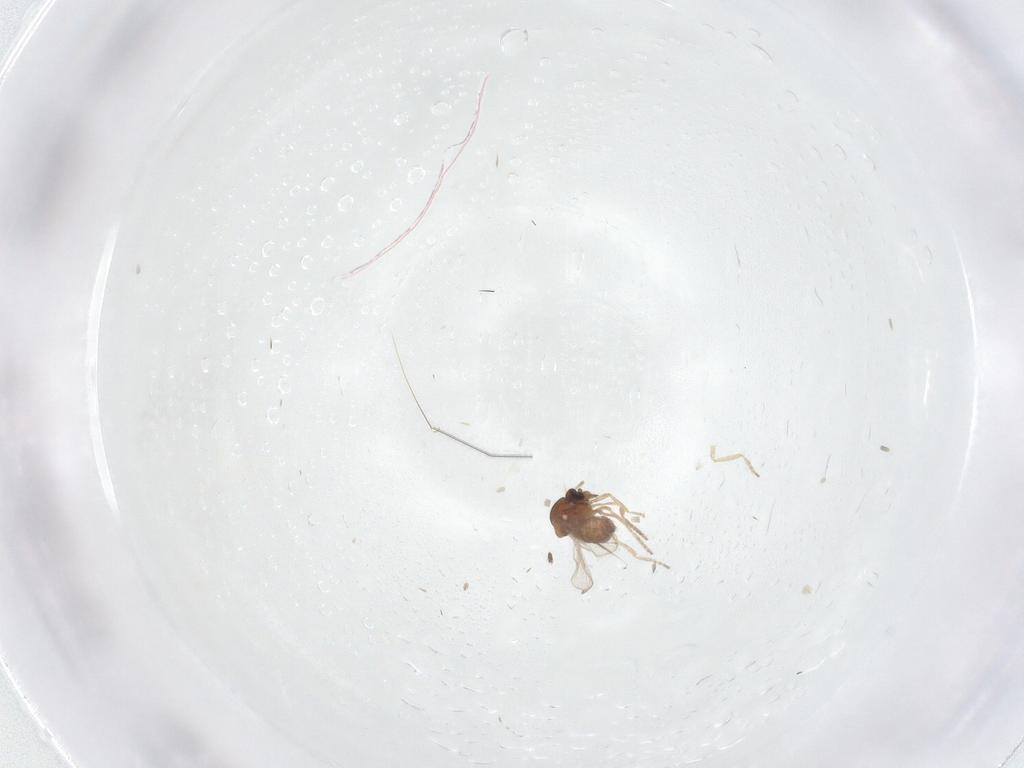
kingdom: Animalia
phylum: Arthropoda
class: Insecta
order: Diptera
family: Ceratopogonidae
